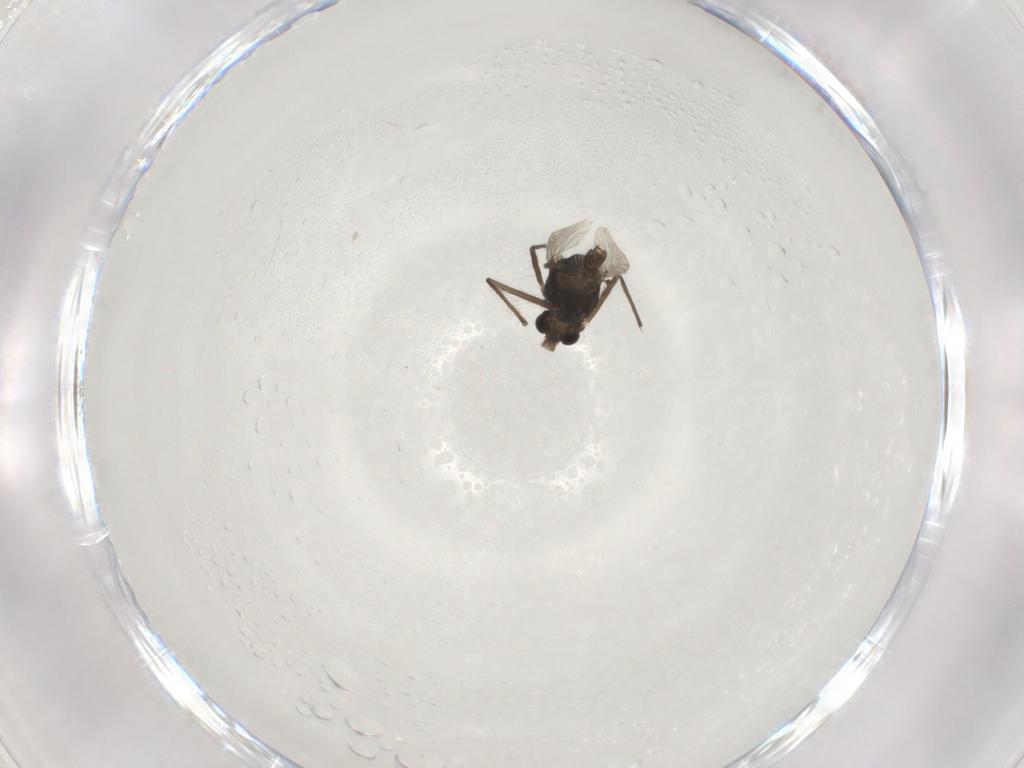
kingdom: Animalia
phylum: Arthropoda
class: Insecta
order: Diptera
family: Chironomidae
